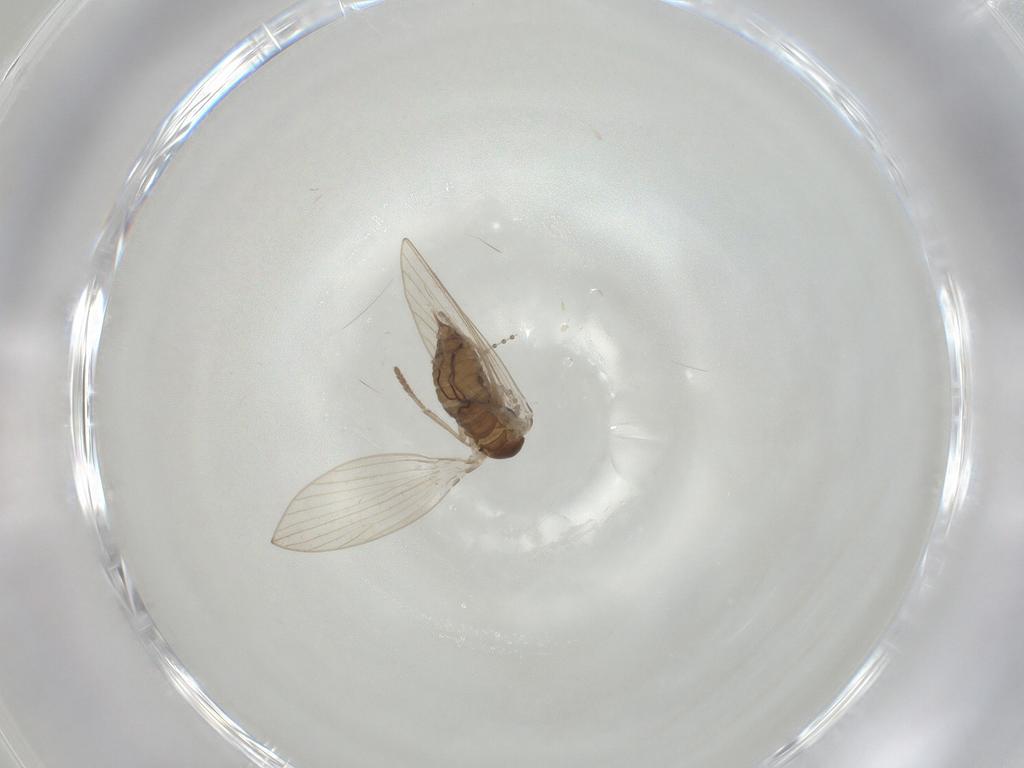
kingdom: Animalia
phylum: Arthropoda
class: Insecta
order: Diptera
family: Psychodidae
